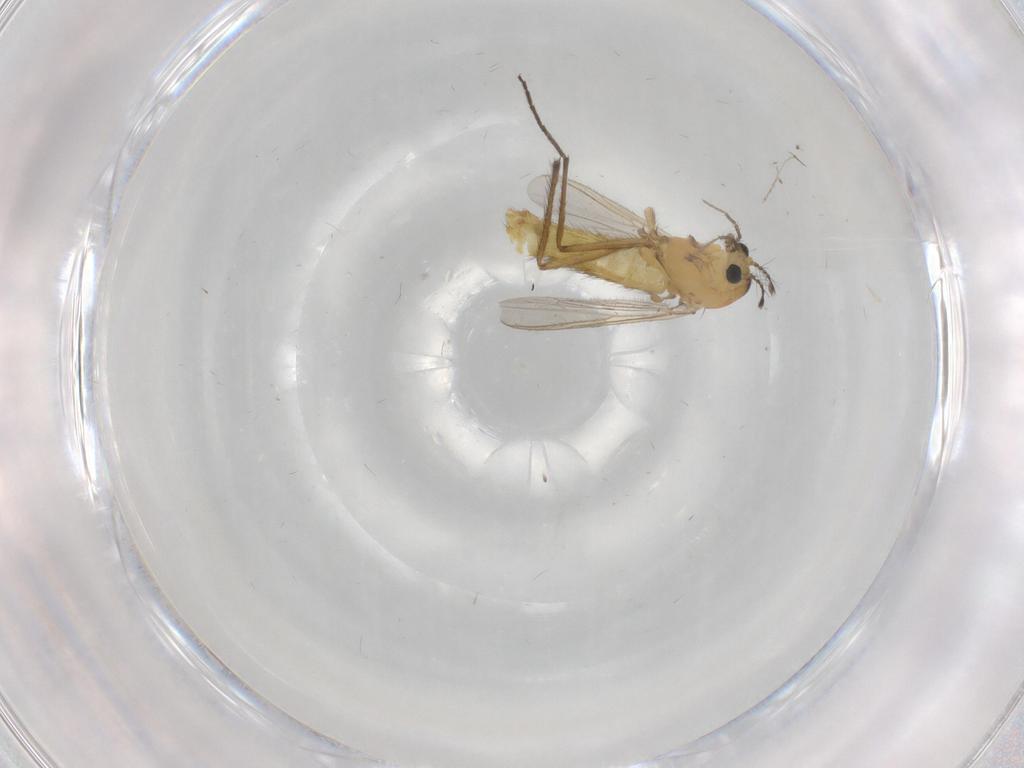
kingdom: Animalia
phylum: Arthropoda
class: Insecta
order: Diptera
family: Chironomidae
